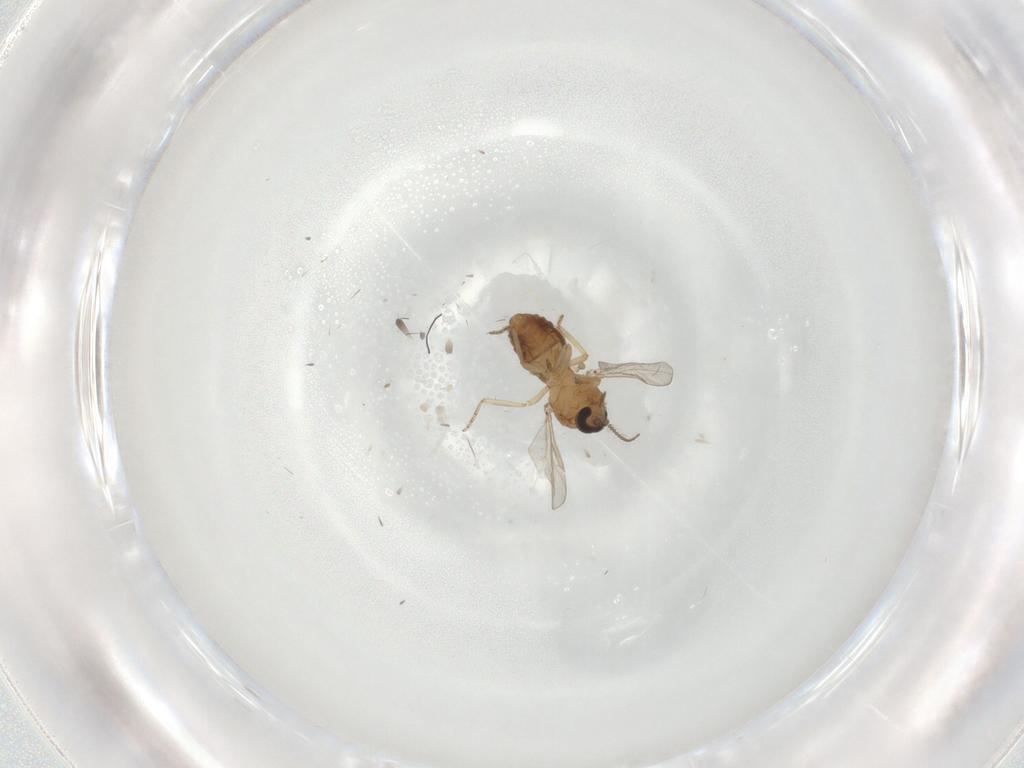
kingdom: Animalia
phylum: Arthropoda
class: Insecta
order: Diptera
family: Ceratopogonidae
